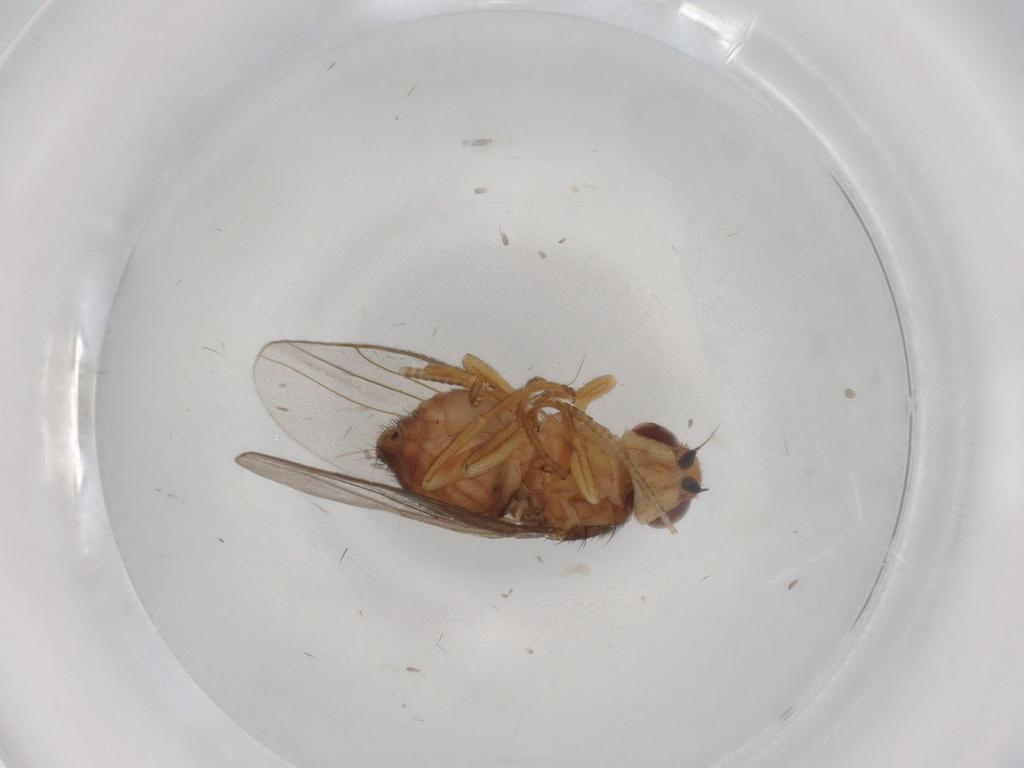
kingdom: Animalia
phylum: Arthropoda
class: Insecta
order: Diptera
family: Chloropidae
